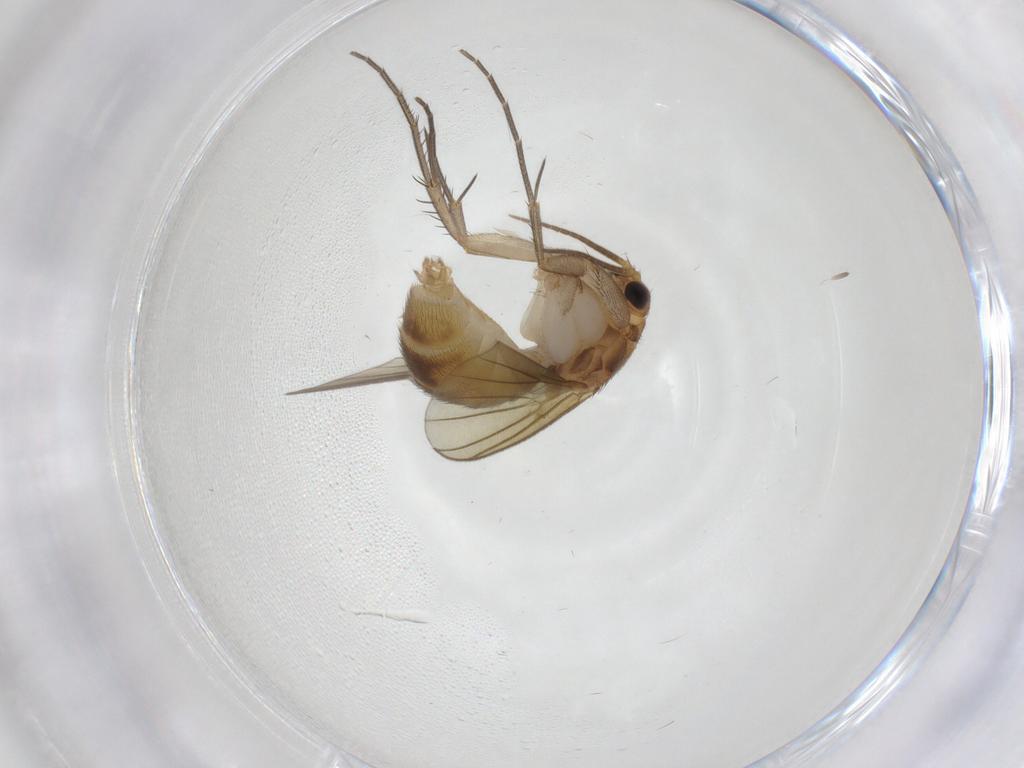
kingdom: Animalia
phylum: Arthropoda
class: Insecta
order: Diptera
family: Mycetophilidae
